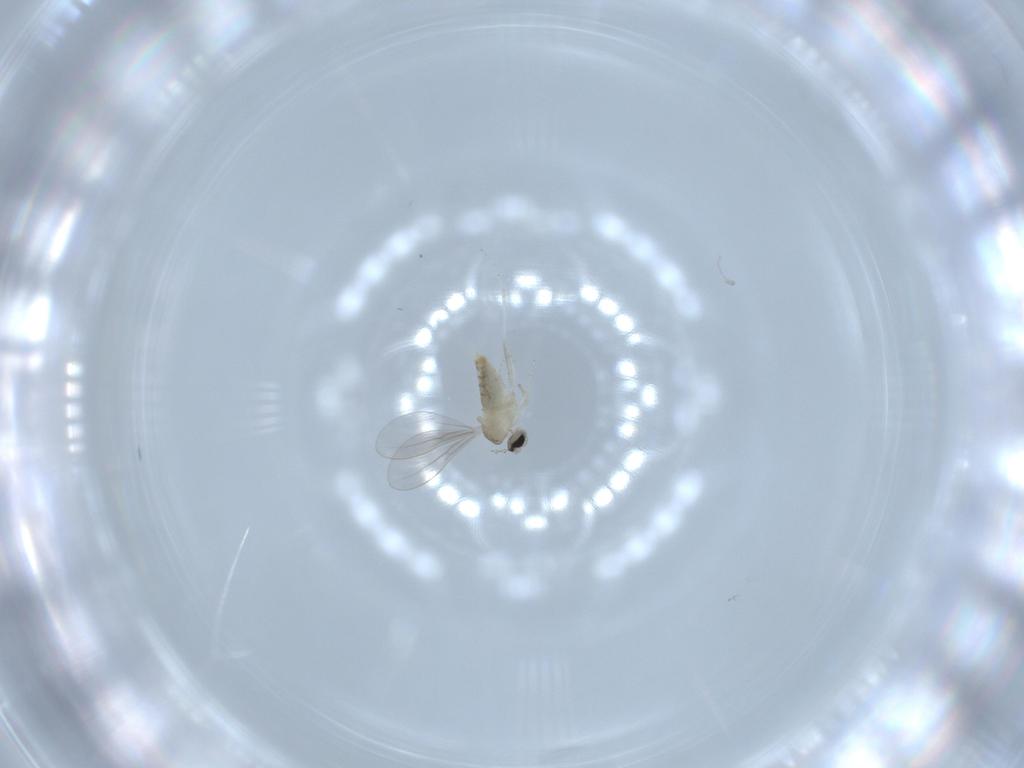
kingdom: Animalia
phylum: Arthropoda
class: Insecta
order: Diptera
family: Cecidomyiidae
